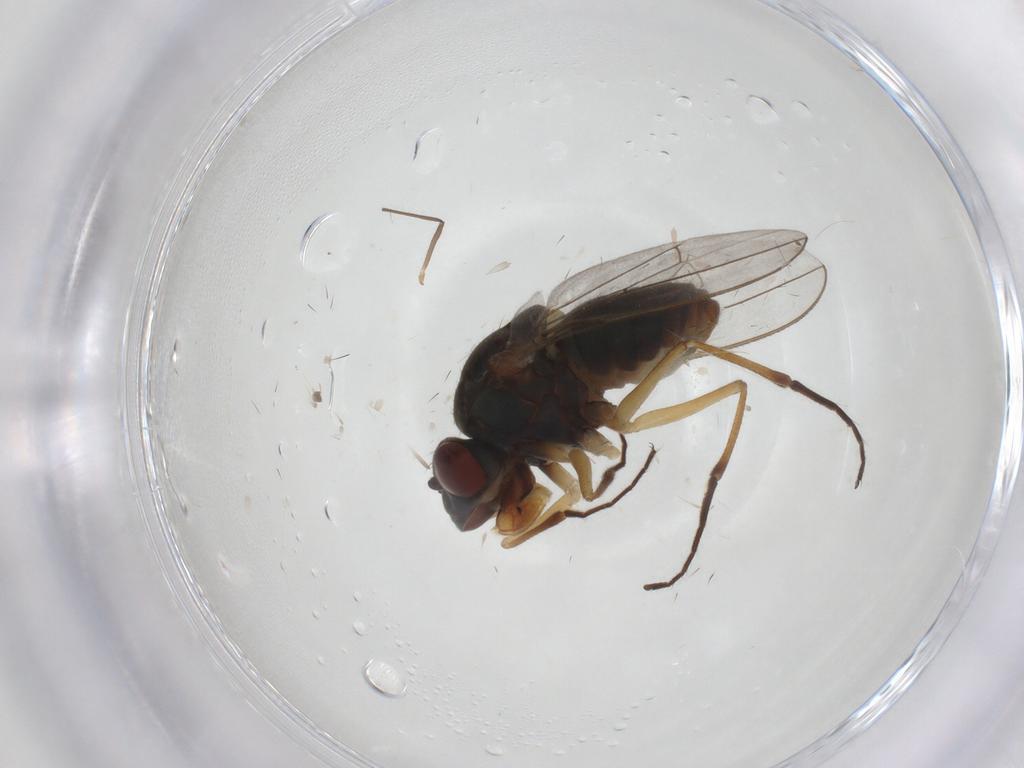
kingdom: Animalia
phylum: Arthropoda
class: Insecta
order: Diptera
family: Ephydridae
